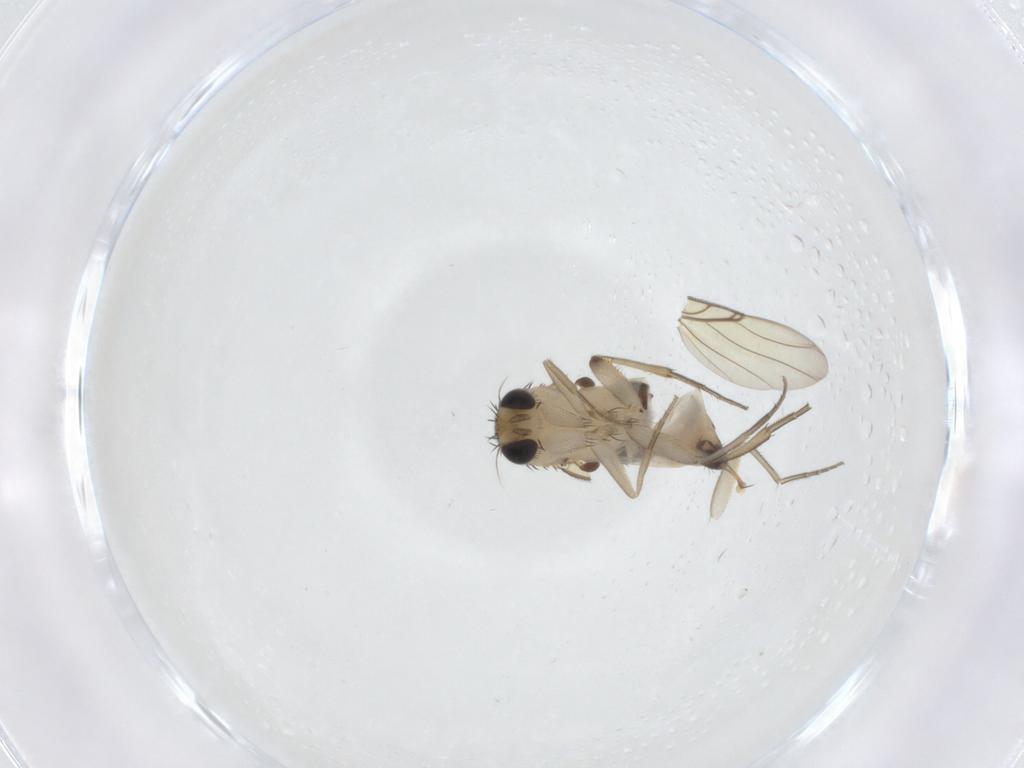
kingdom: Animalia
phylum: Arthropoda
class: Insecta
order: Diptera
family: Phoridae
